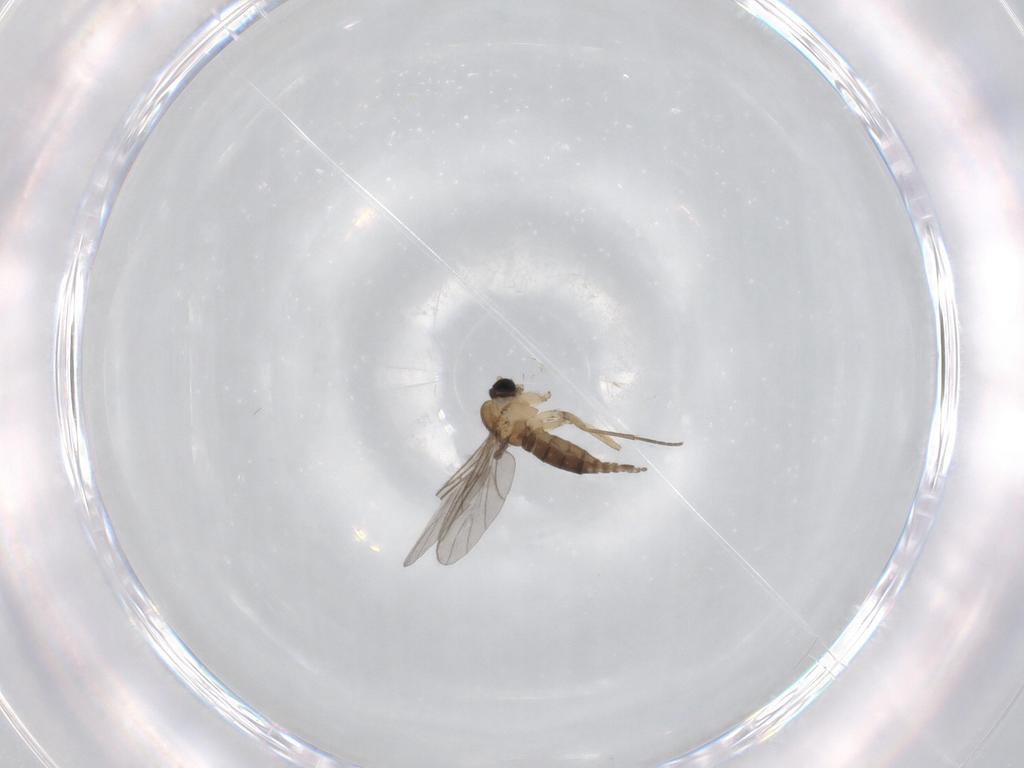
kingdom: Animalia
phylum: Arthropoda
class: Insecta
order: Diptera
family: Sciaridae
